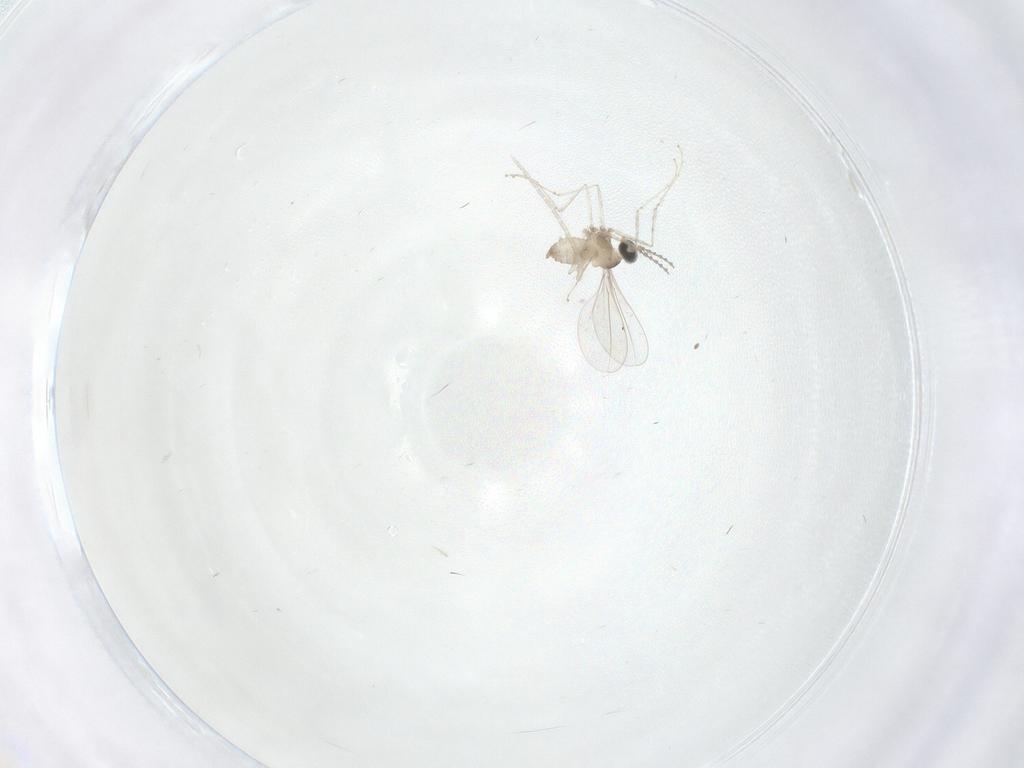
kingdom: Animalia
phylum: Arthropoda
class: Insecta
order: Diptera
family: Cecidomyiidae
